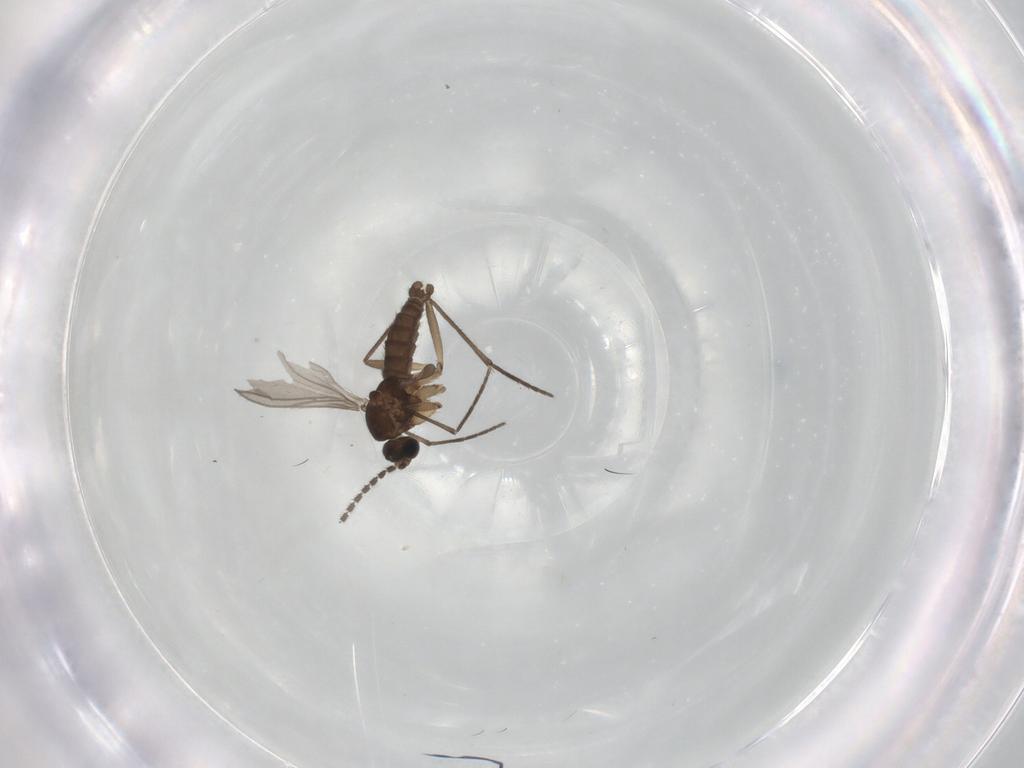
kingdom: Animalia
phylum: Arthropoda
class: Insecta
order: Diptera
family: Sciaridae
